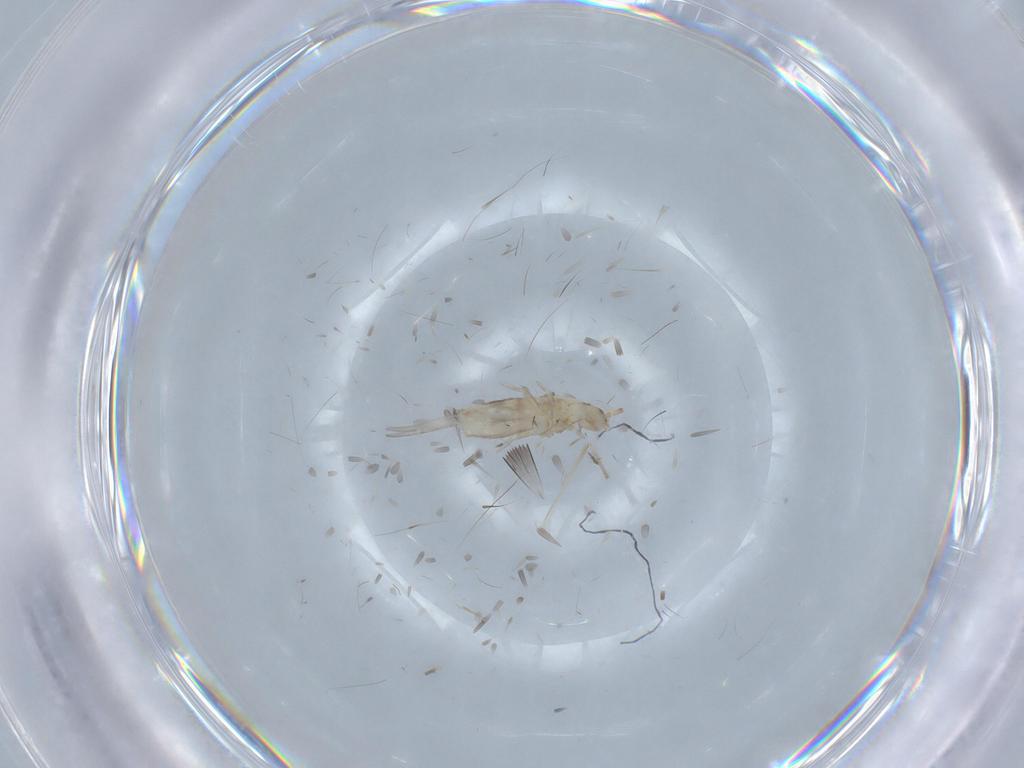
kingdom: Animalia
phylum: Arthropoda
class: Collembola
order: Entomobryomorpha
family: Entomobryidae
